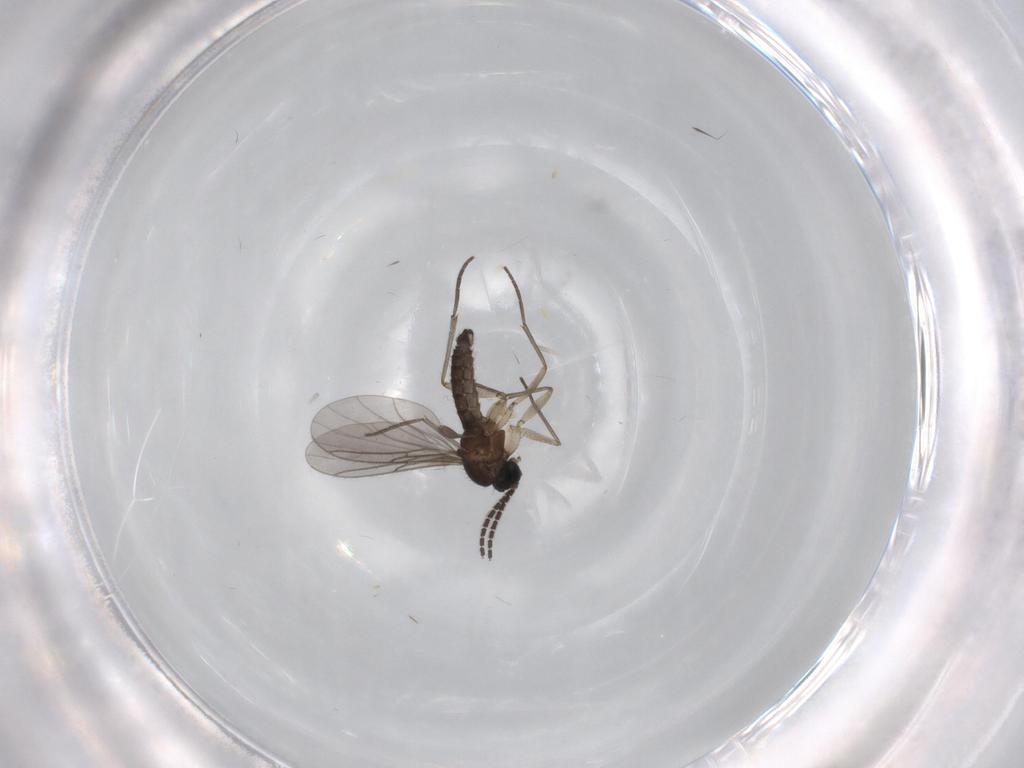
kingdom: Animalia
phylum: Arthropoda
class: Insecta
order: Diptera
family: Sciaridae
